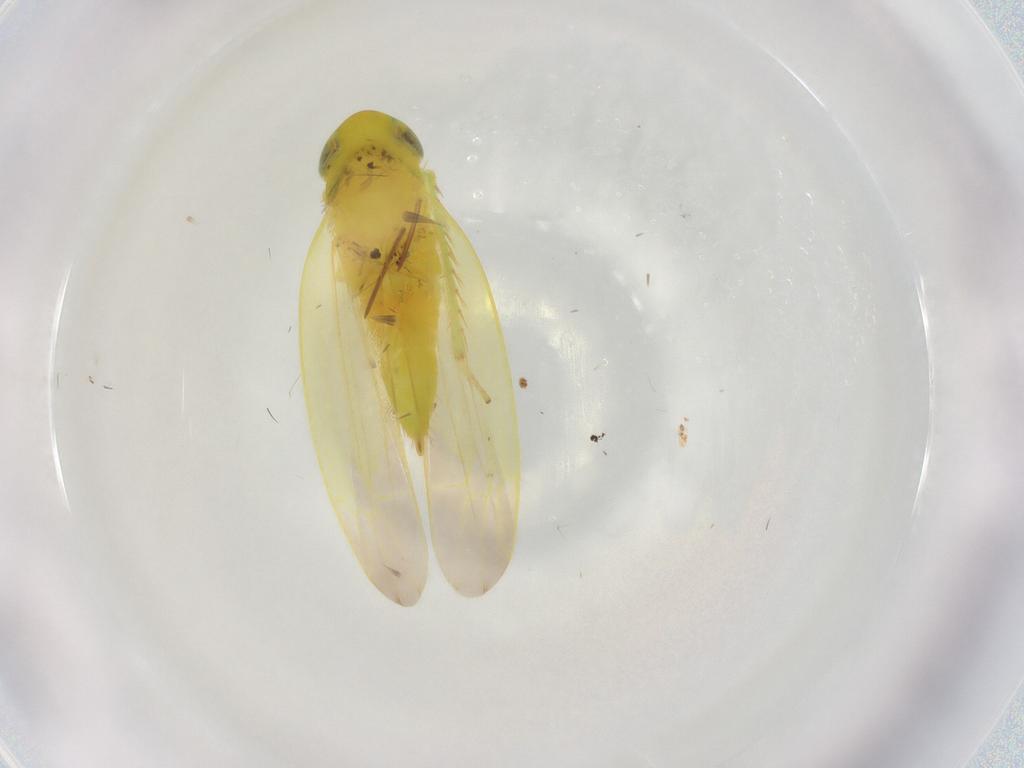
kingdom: Animalia
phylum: Arthropoda
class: Insecta
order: Hemiptera
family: Cicadellidae
